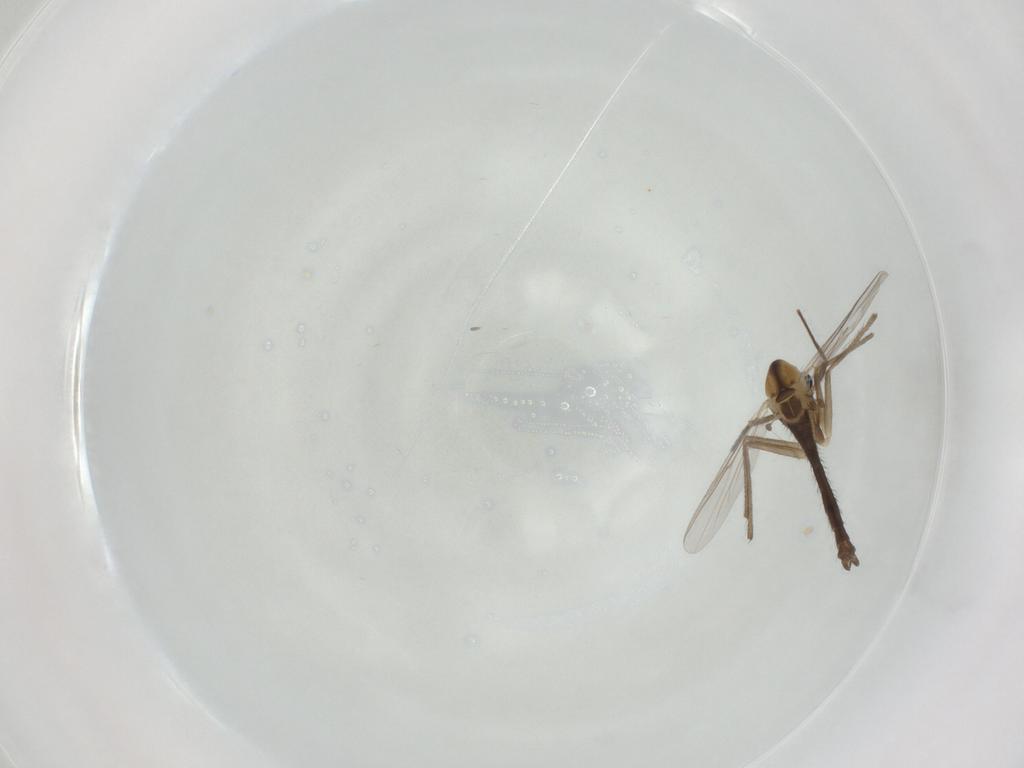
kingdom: Animalia
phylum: Arthropoda
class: Insecta
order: Diptera
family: Chironomidae
